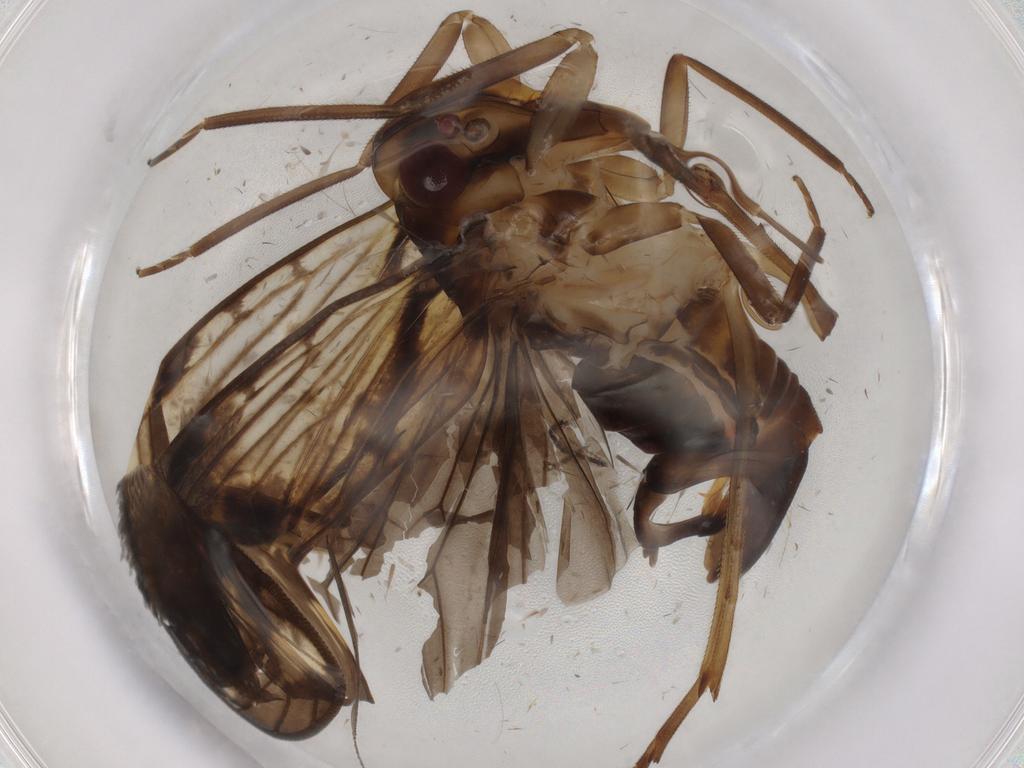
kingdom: Animalia
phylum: Arthropoda
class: Insecta
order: Hemiptera
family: Cixiidae
